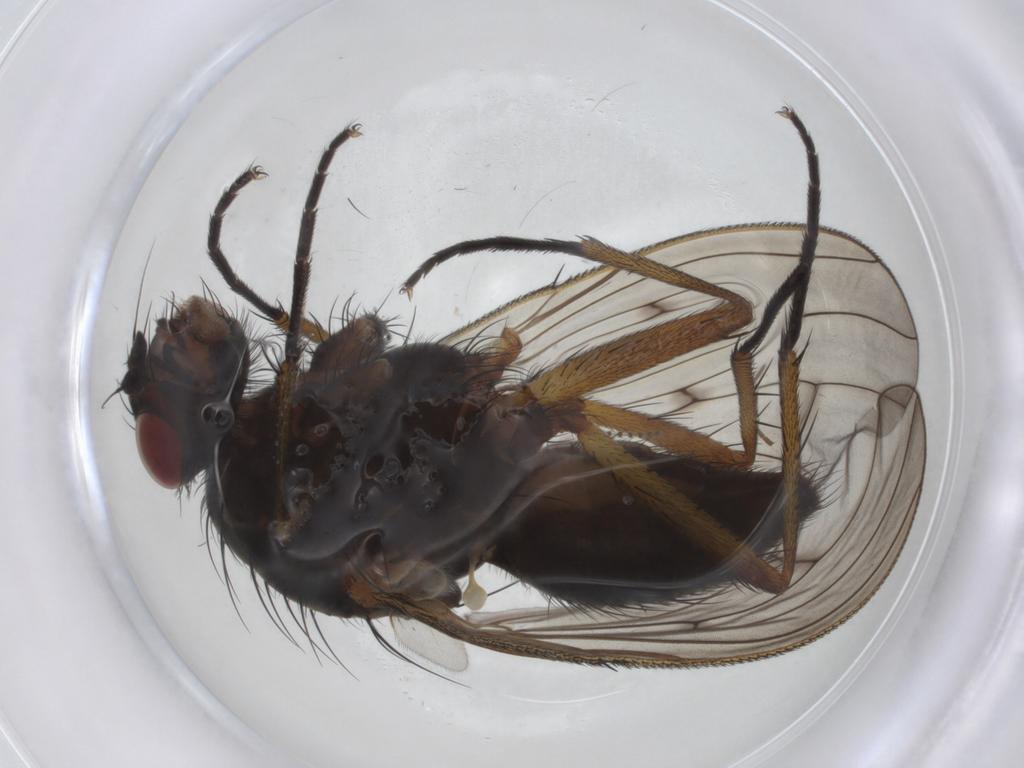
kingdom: Animalia
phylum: Arthropoda
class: Insecta
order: Diptera
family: Anthomyiidae
